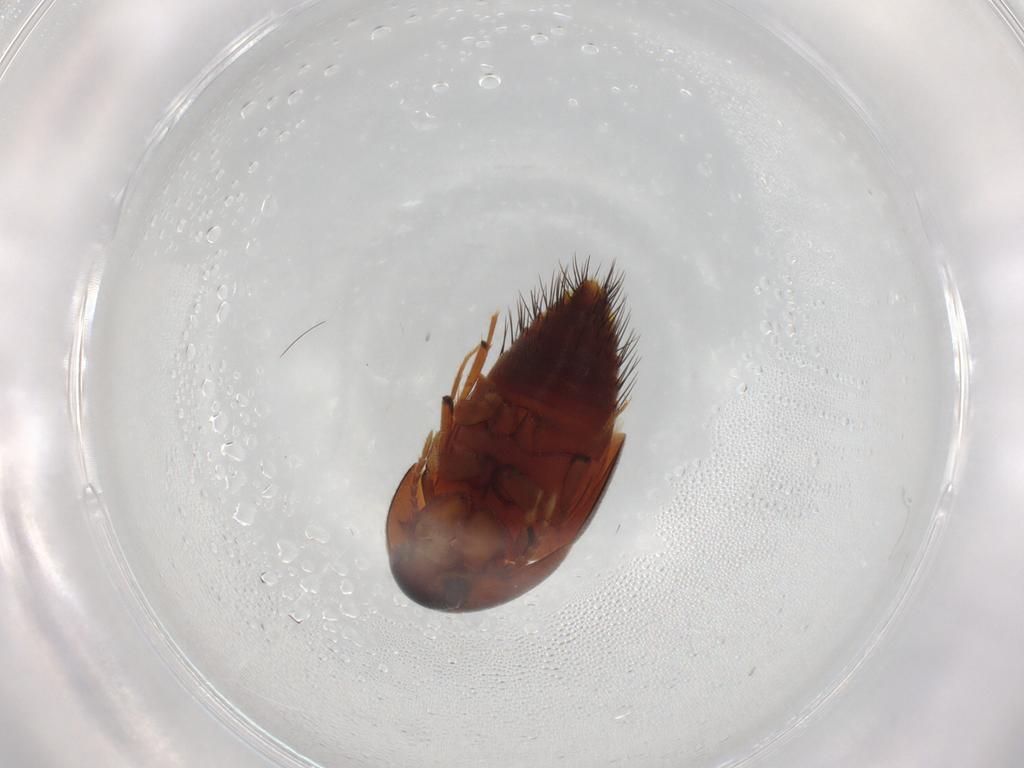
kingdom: Animalia
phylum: Arthropoda
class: Insecta
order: Coleoptera
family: Staphylinidae
